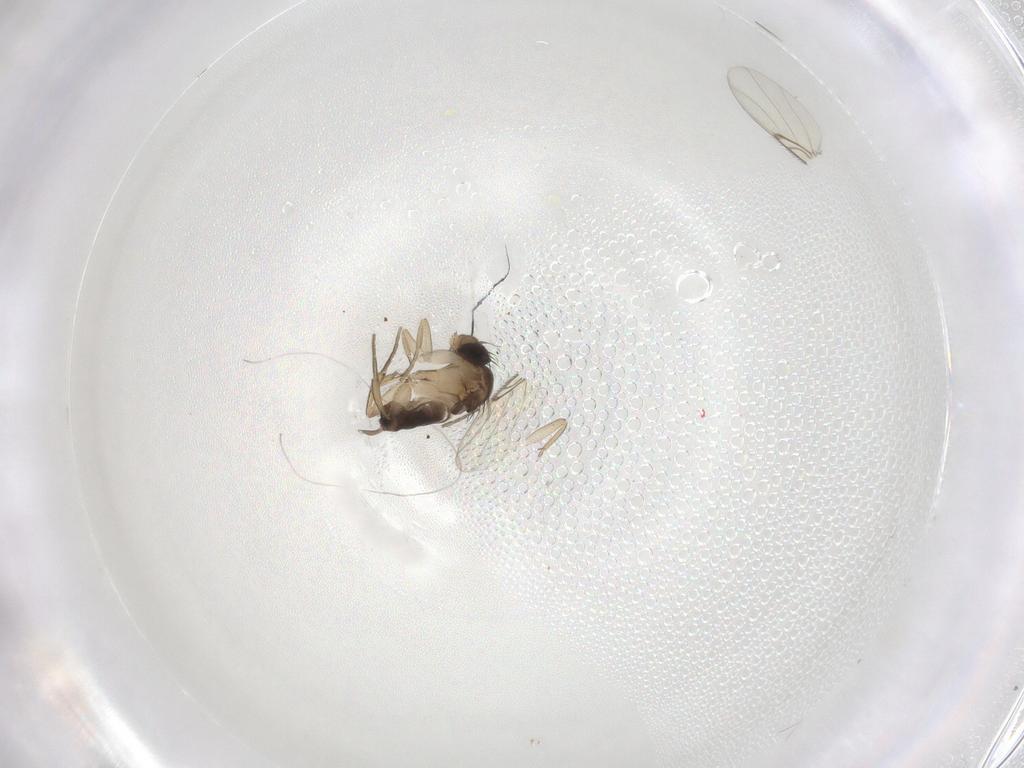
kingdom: Animalia
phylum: Arthropoda
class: Insecta
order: Diptera
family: Phoridae
